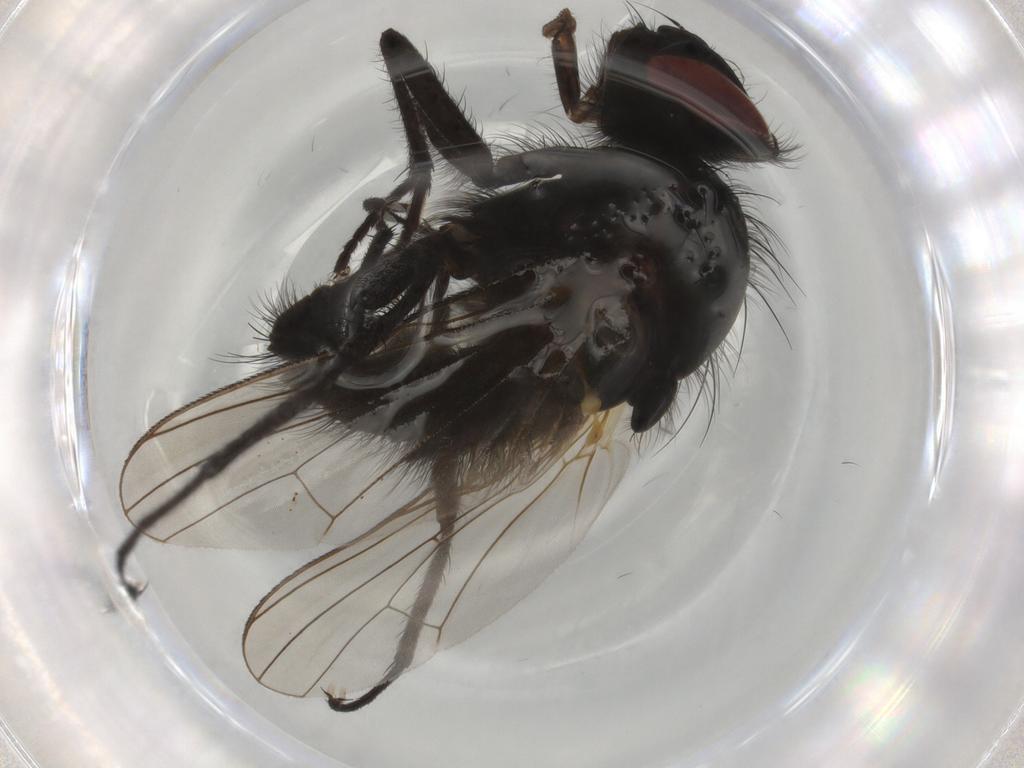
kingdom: Animalia
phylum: Arthropoda
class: Insecta
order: Diptera
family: Anthomyiidae
